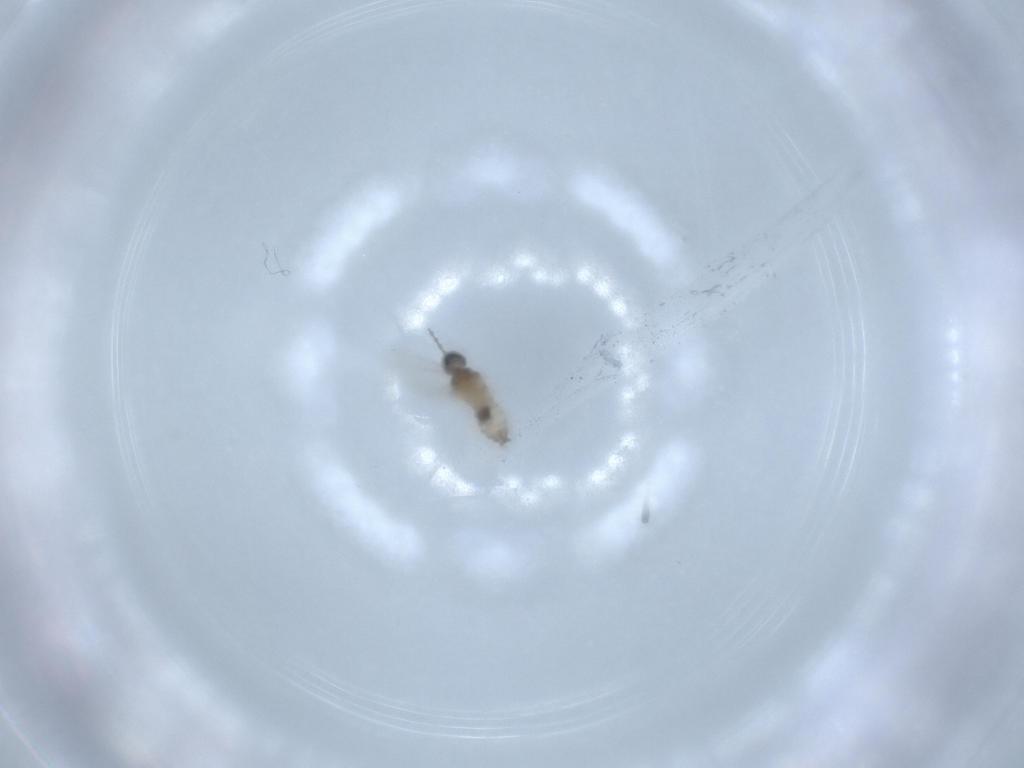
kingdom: Animalia
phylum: Arthropoda
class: Insecta
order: Diptera
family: Cecidomyiidae
